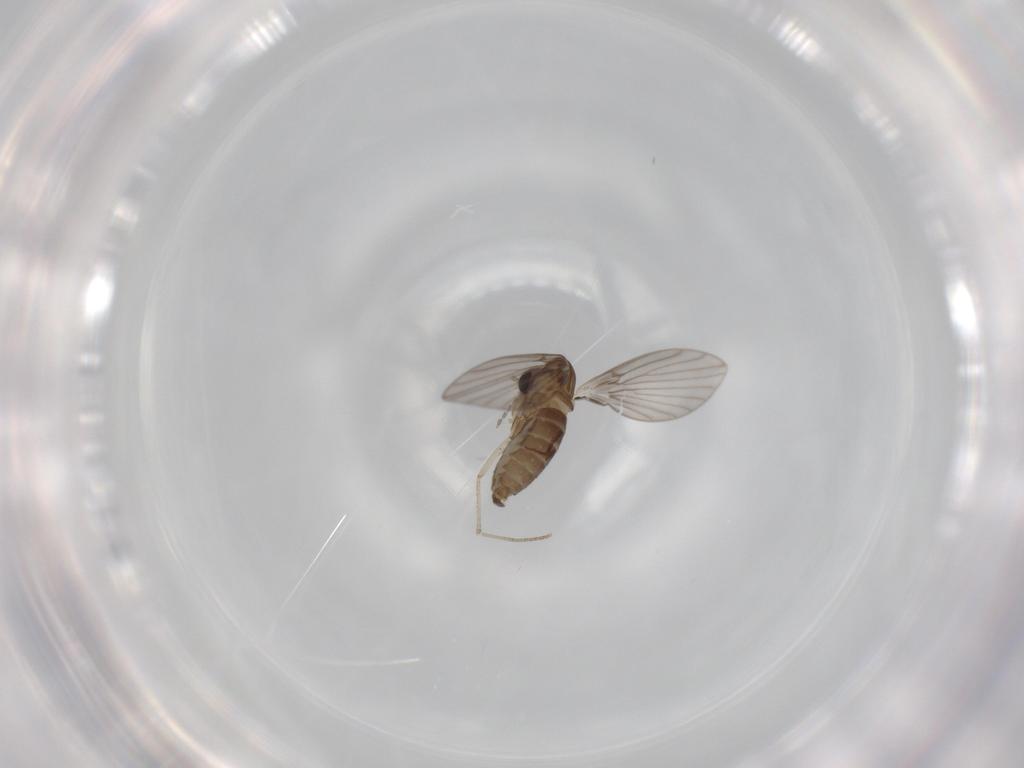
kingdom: Animalia
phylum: Arthropoda
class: Insecta
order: Diptera
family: Psychodidae
